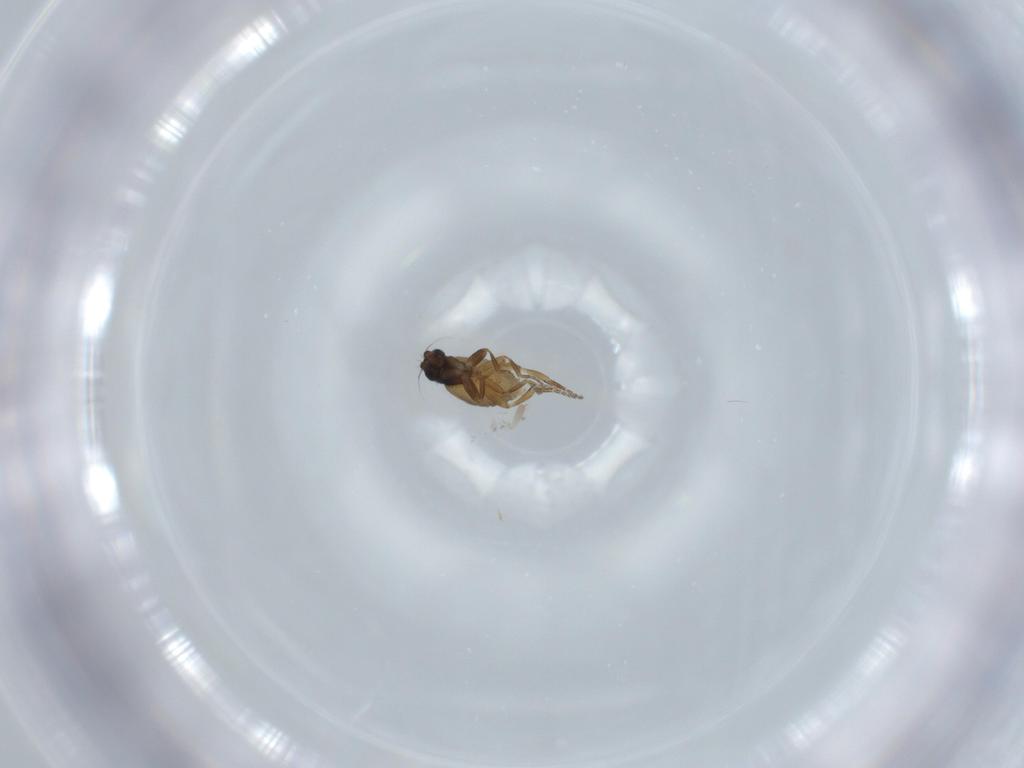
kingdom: Animalia
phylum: Arthropoda
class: Insecta
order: Diptera
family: Phoridae
